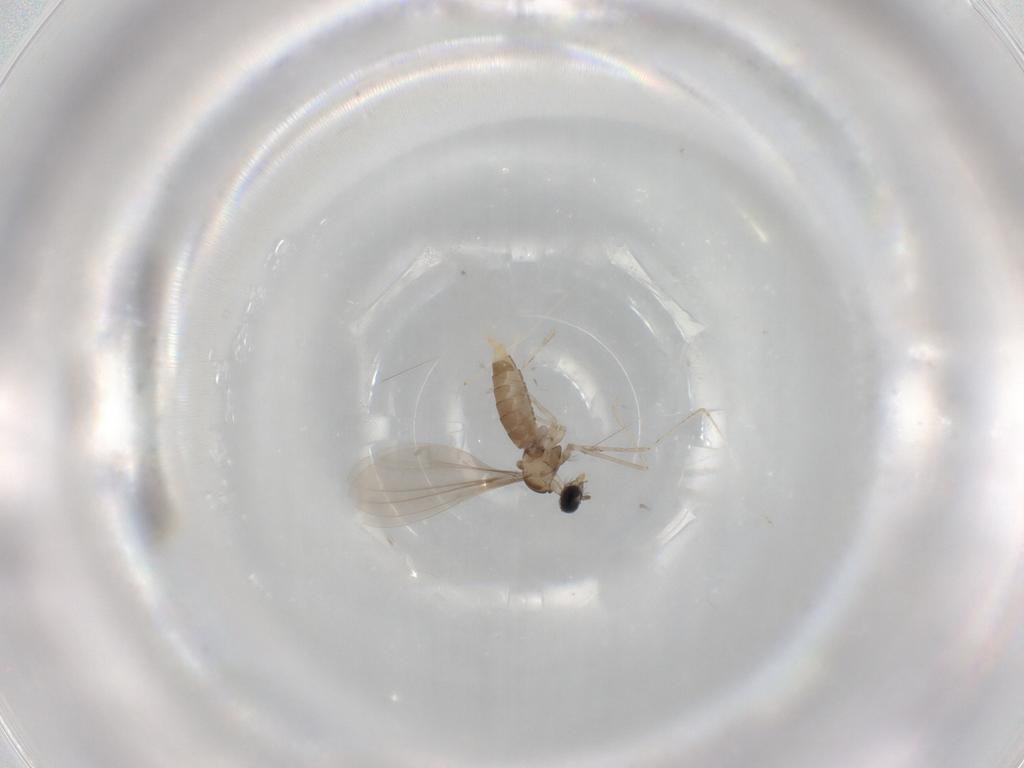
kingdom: Animalia
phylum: Arthropoda
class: Insecta
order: Diptera
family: Cecidomyiidae
